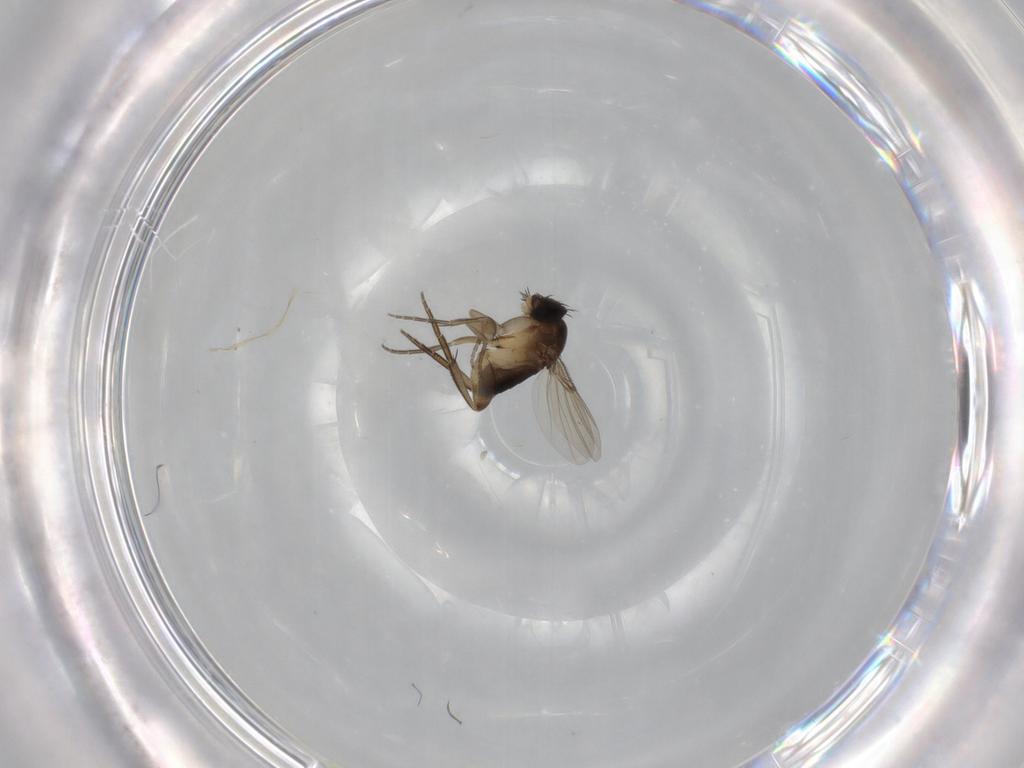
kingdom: Animalia
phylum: Arthropoda
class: Insecta
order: Diptera
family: Phoridae
